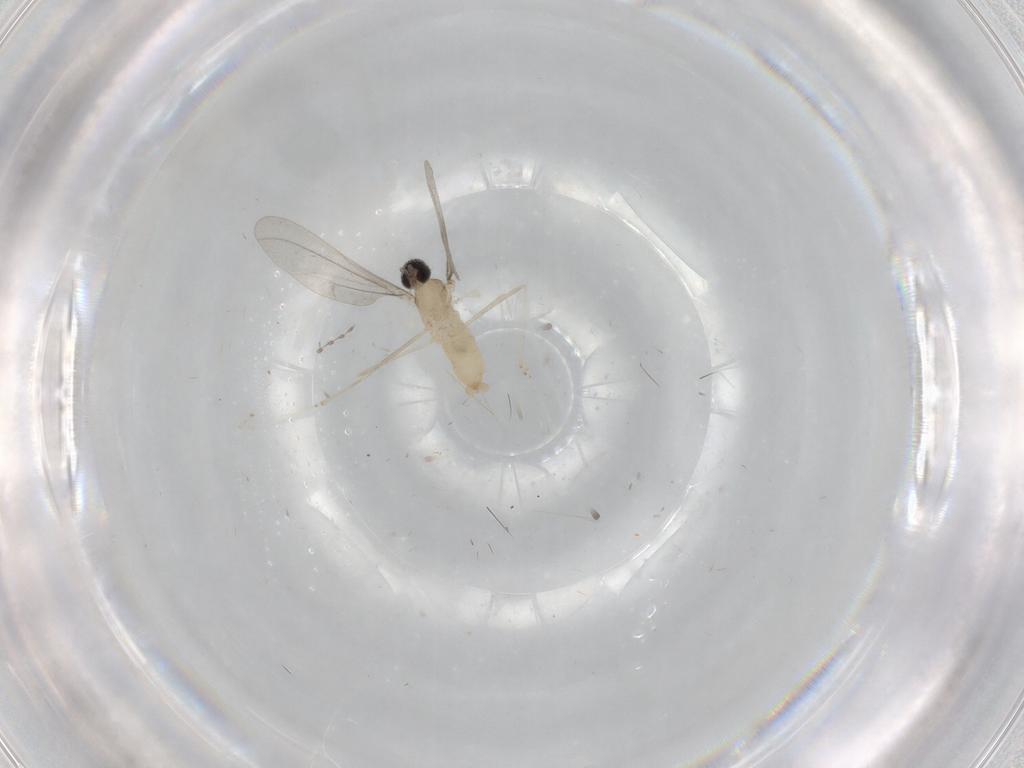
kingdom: Animalia
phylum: Arthropoda
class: Insecta
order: Diptera
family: Cecidomyiidae
